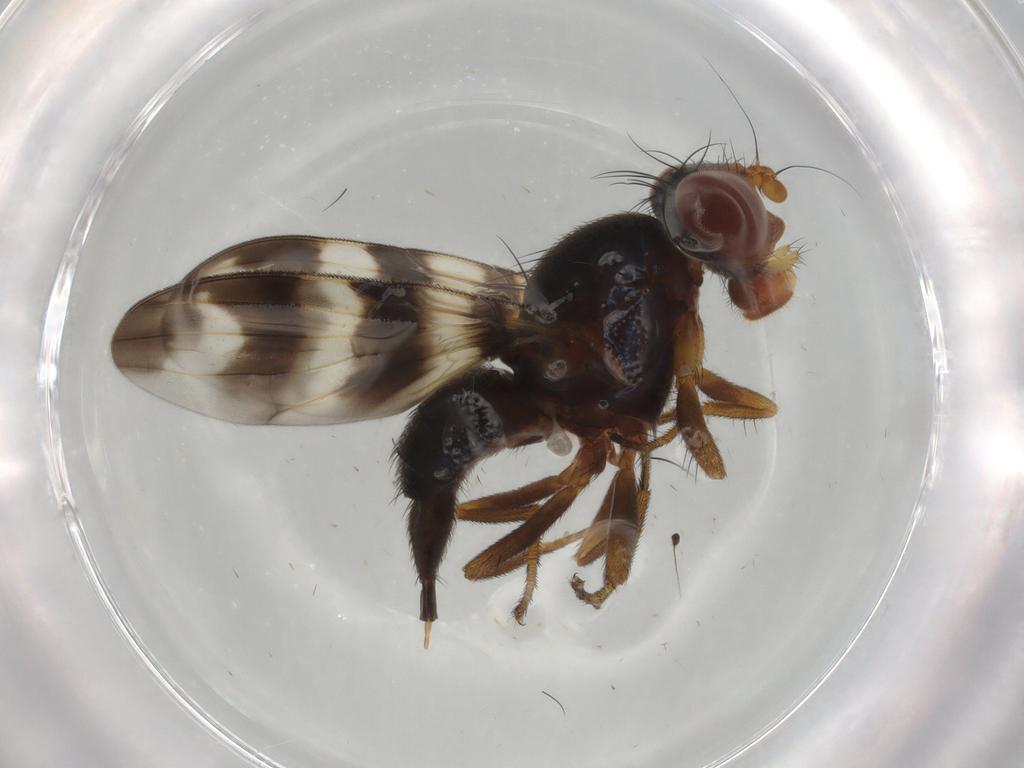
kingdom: Animalia
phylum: Arthropoda
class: Insecta
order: Diptera
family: Ulidiidae
